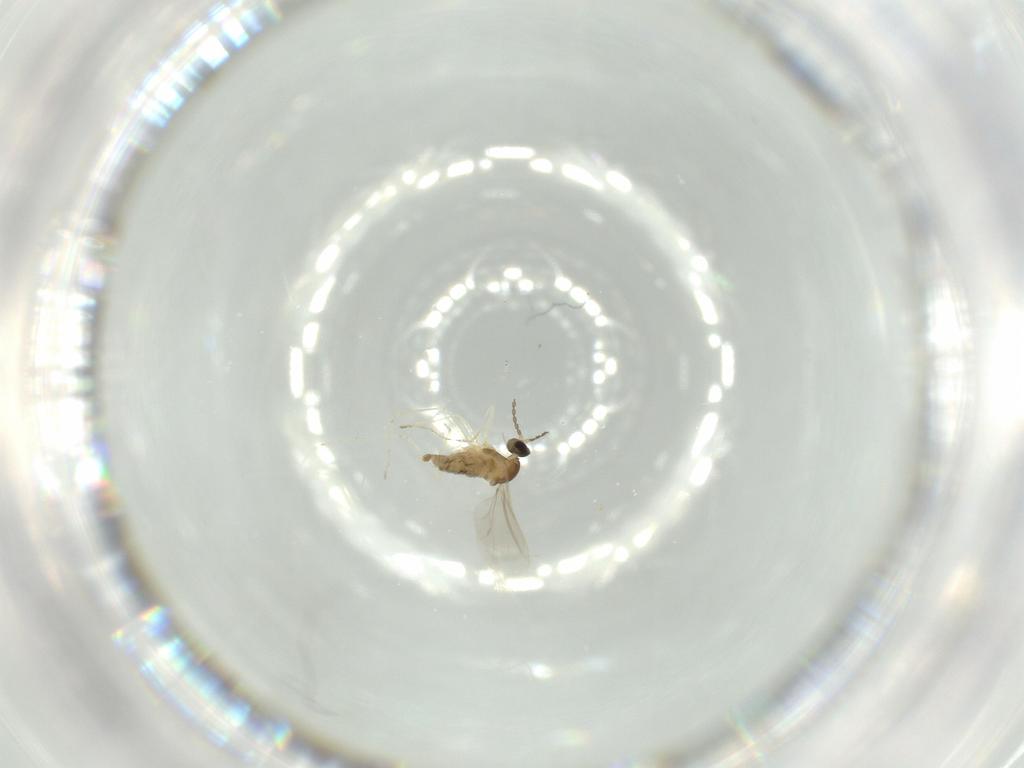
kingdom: Animalia
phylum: Arthropoda
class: Insecta
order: Diptera
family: Cecidomyiidae
